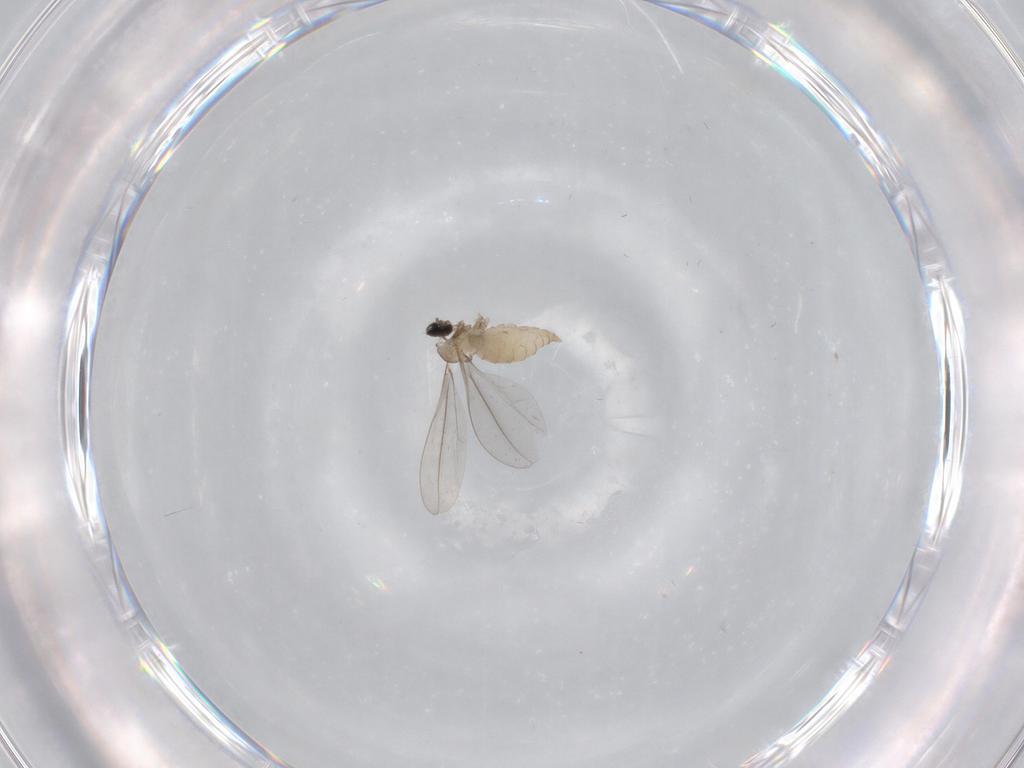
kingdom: Animalia
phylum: Arthropoda
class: Insecta
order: Diptera
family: Cecidomyiidae
